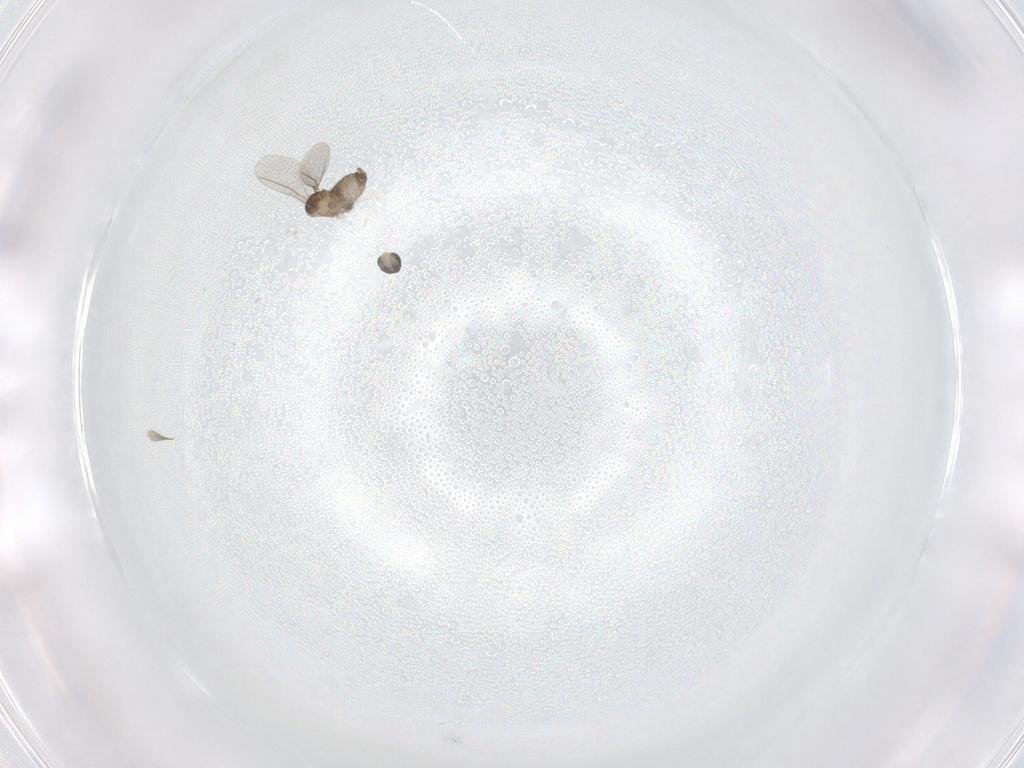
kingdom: Animalia
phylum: Arthropoda
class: Insecta
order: Diptera
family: Cecidomyiidae
